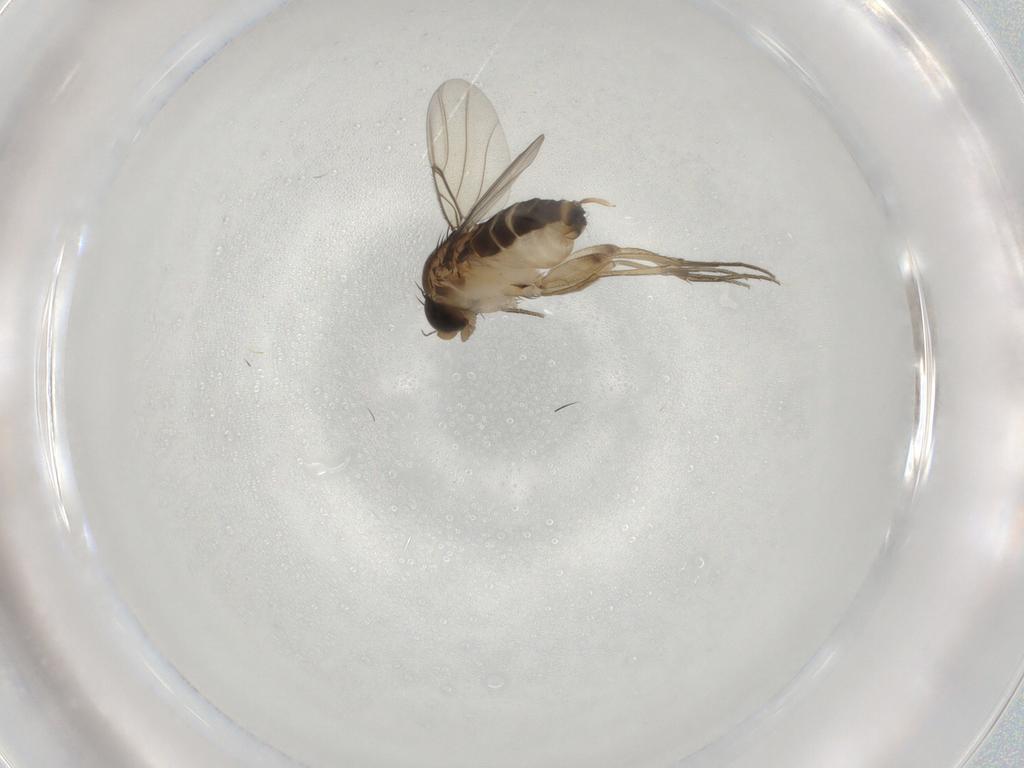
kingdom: Animalia
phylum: Arthropoda
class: Insecta
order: Diptera
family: Phoridae
